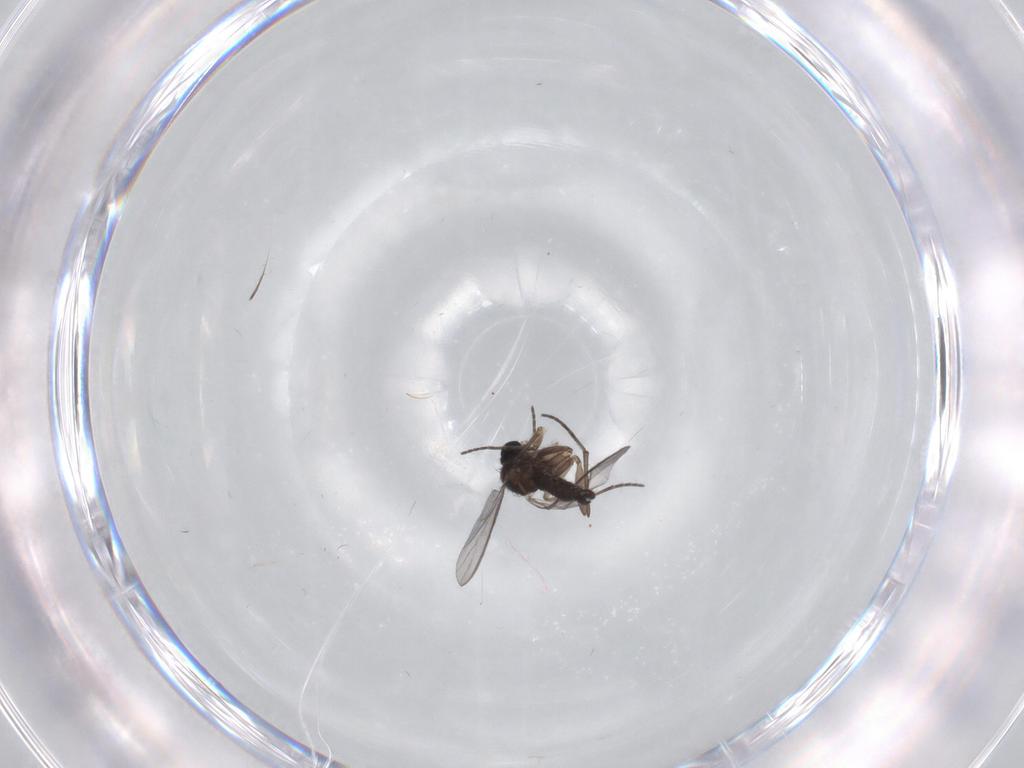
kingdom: Animalia
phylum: Arthropoda
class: Insecta
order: Diptera
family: Sciaridae
